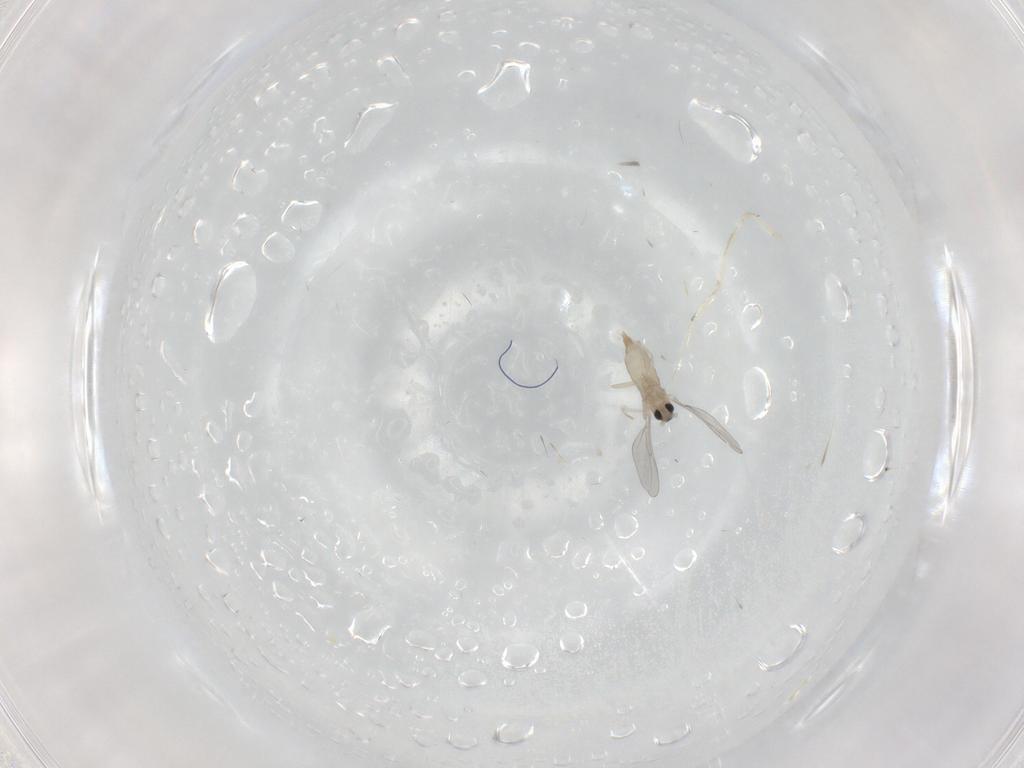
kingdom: Animalia
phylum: Arthropoda
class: Insecta
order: Diptera
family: Cecidomyiidae
